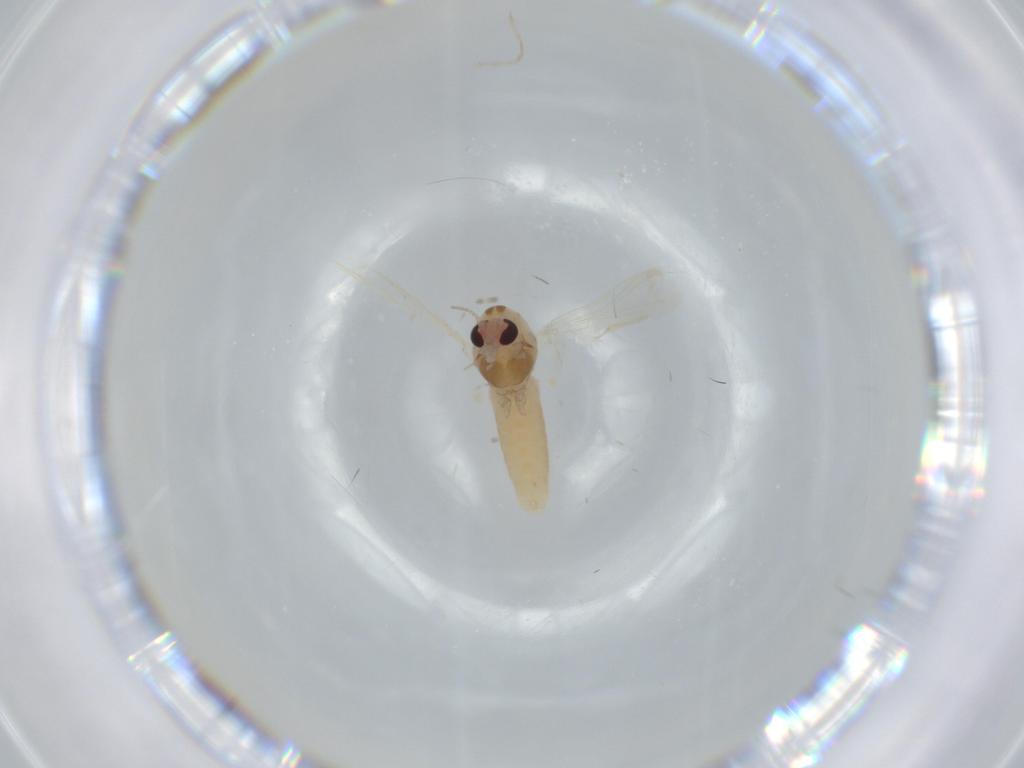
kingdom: Animalia
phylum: Arthropoda
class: Insecta
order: Diptera
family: Chironomidae
